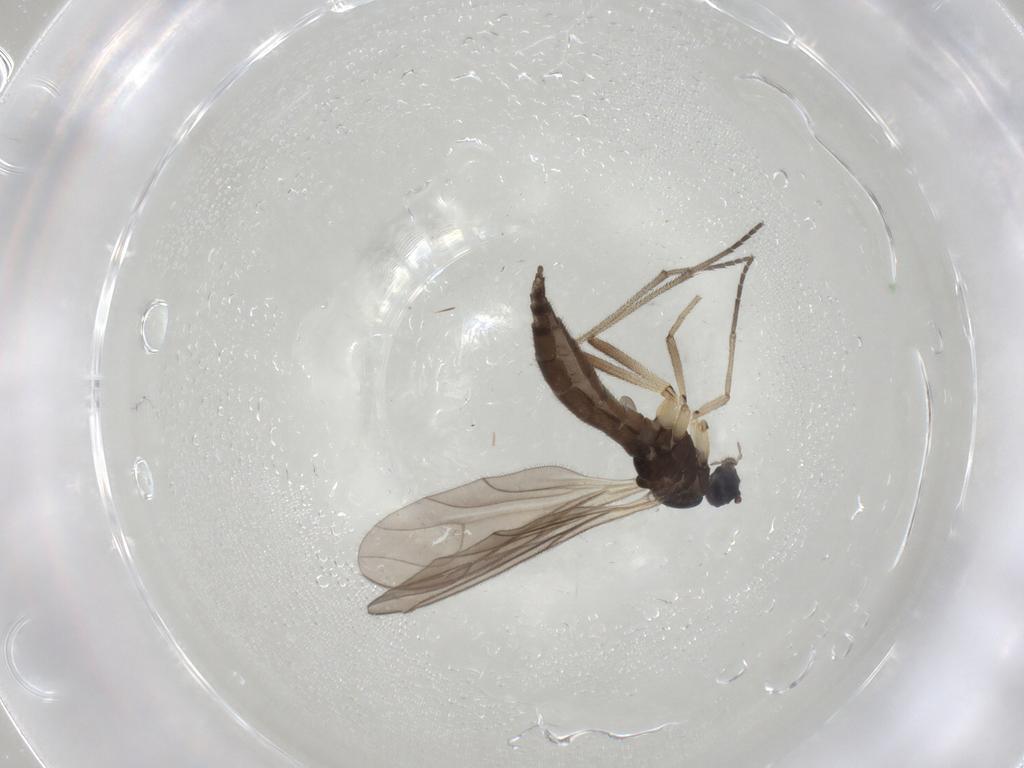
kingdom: Animalia
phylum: Arthropoda
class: Insecta
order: Diptera
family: Sciaridae
